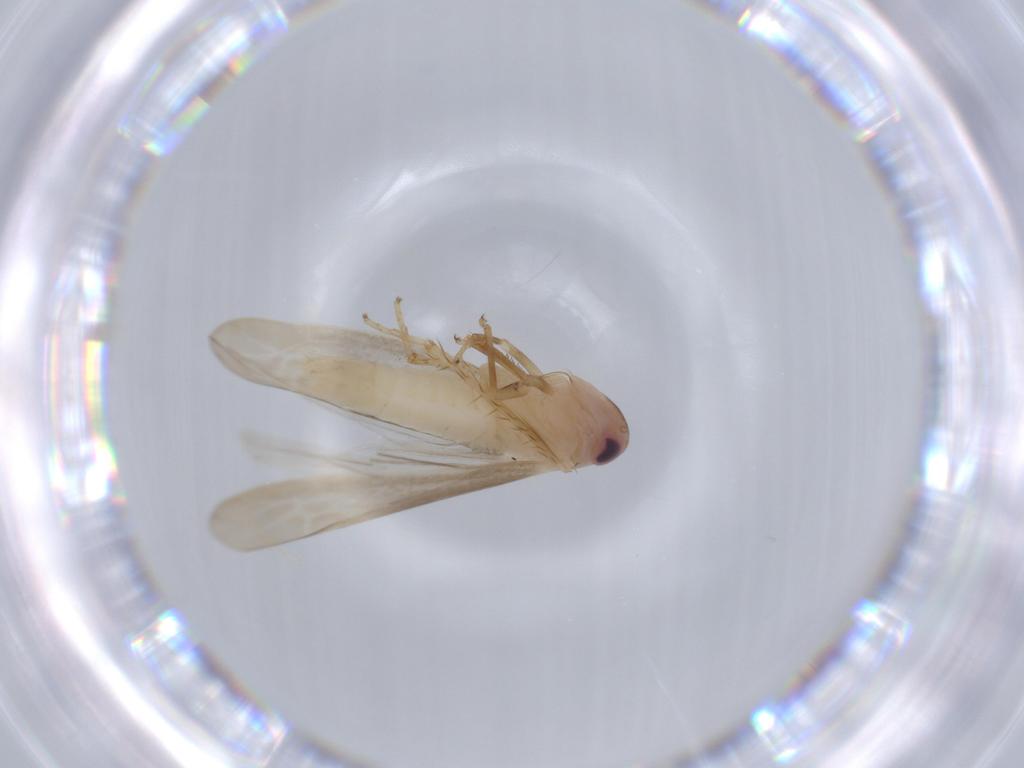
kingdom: Animalia
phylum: Arthropoda
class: Insecta
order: Hemiptera
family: Cicadellidae
